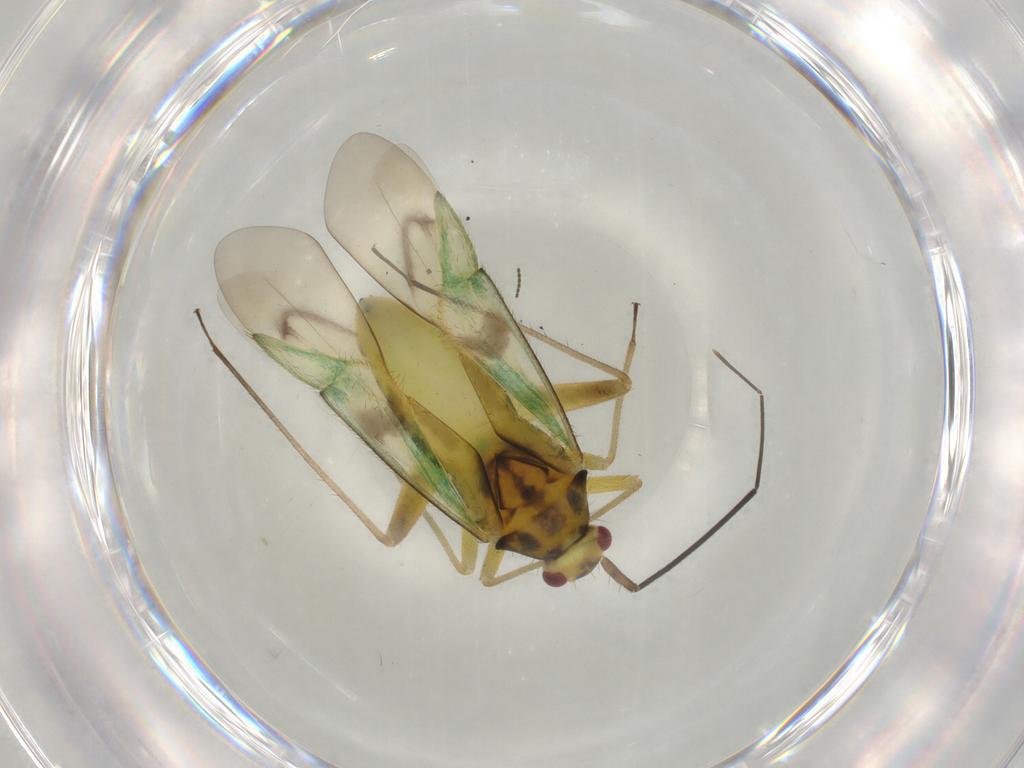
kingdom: Animalia
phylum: Arthropoda
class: Insecta
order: Hemiptera
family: Miridae
